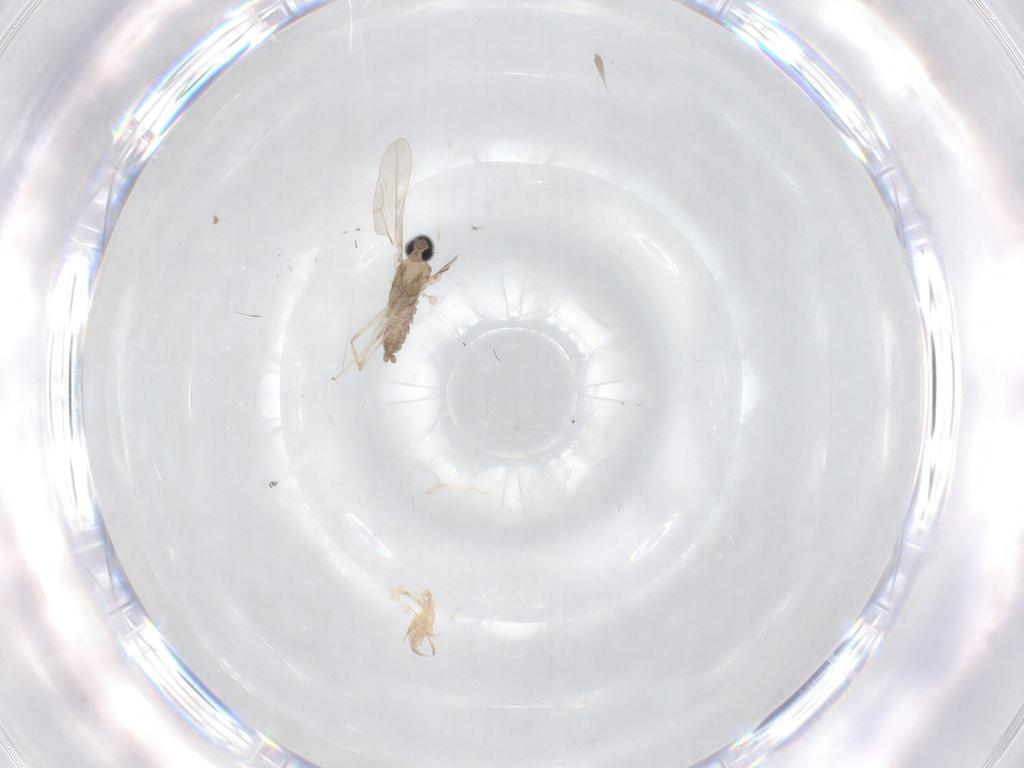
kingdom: Animalia
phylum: Arthropoda
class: Insecta
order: Diptera
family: Cecidomyiidae
